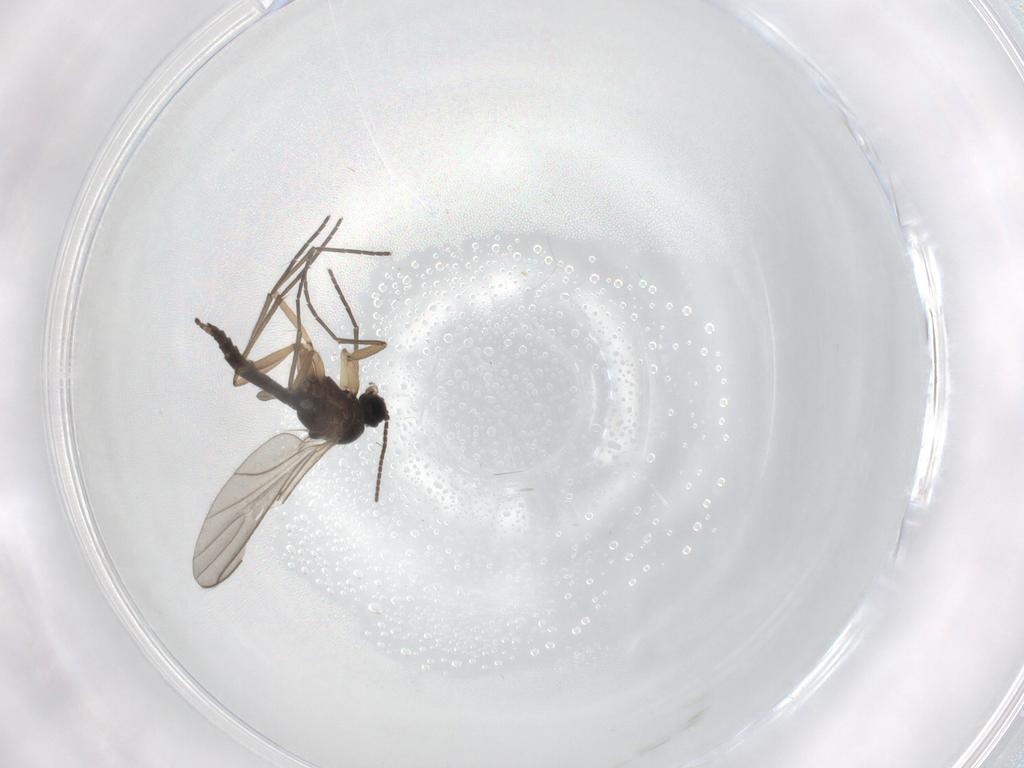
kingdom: Animalia
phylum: Arthropoda
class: Insecta
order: Diptera
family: Sciaridae
